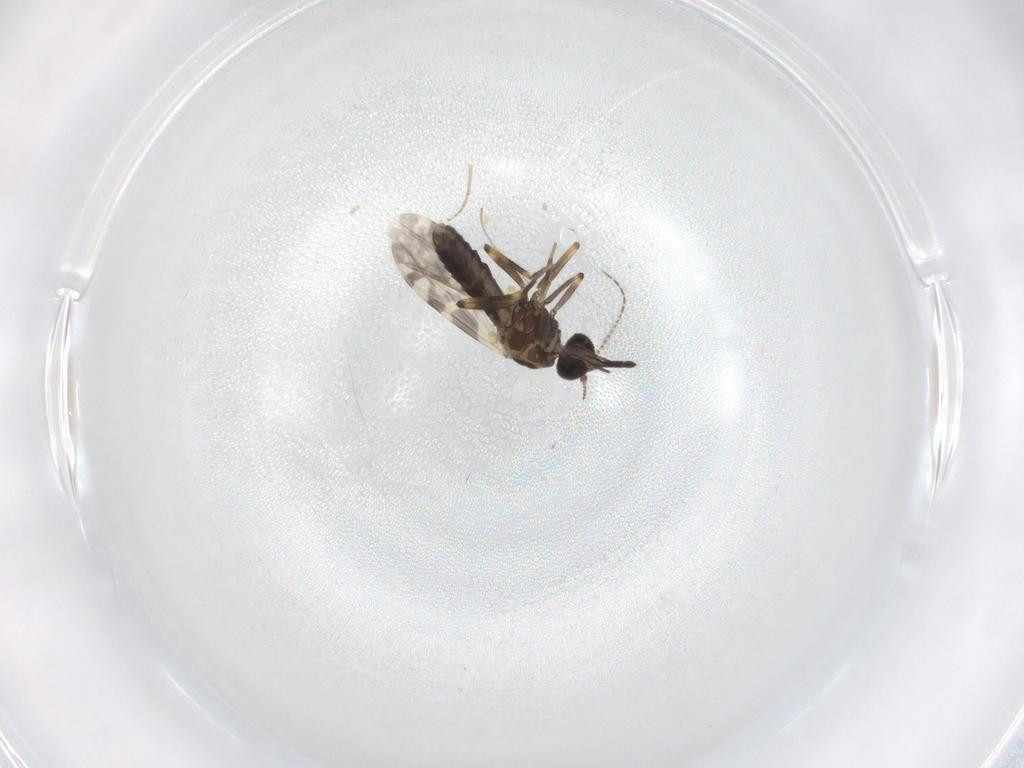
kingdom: Animalia
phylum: Arthropoda
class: Insecta
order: Diptera
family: Ceratopogonidae
